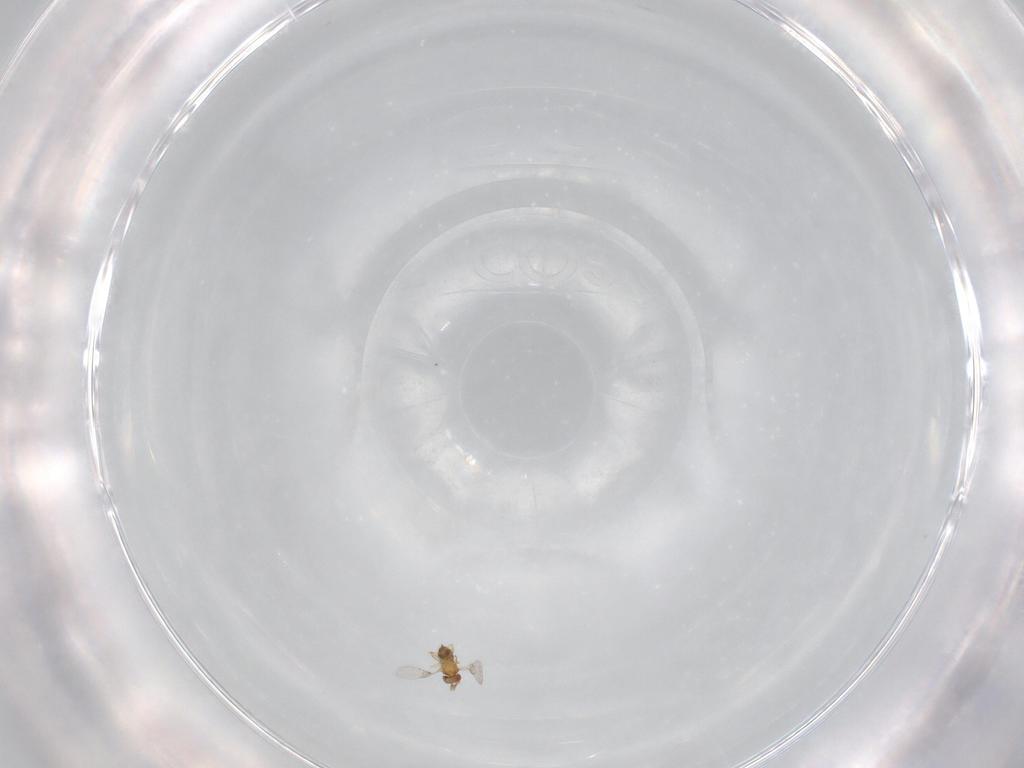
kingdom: Animalia
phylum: Arthropoda
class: Insecta
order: Hymenoptera
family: Trichogrammatidae
